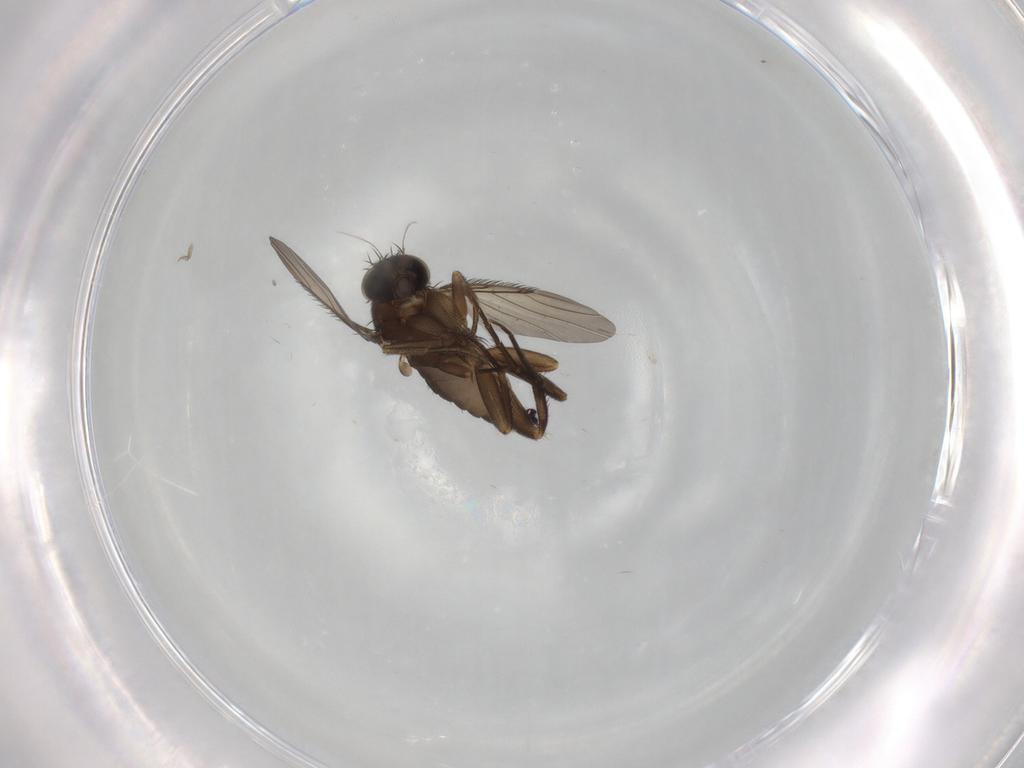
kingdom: Animalia
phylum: Arthropoda
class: Insecta
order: Diptera
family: Phoridae
